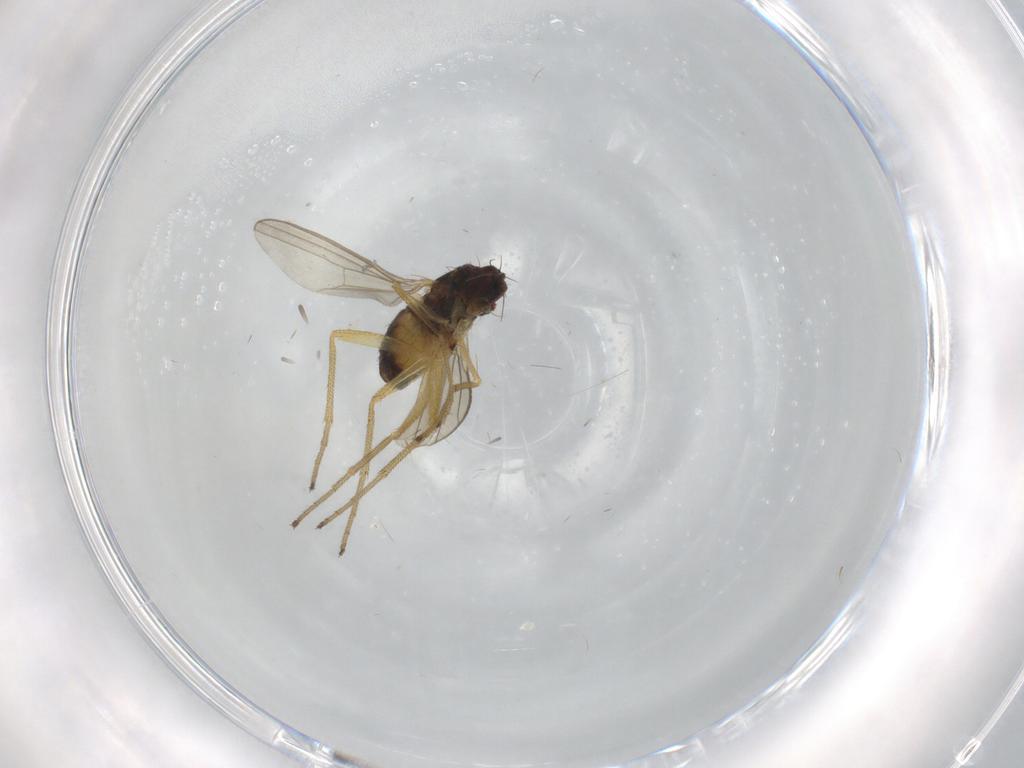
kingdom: Animalia
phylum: Arthropoda
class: Insecta
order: Diptera
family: Dolichopodidae
